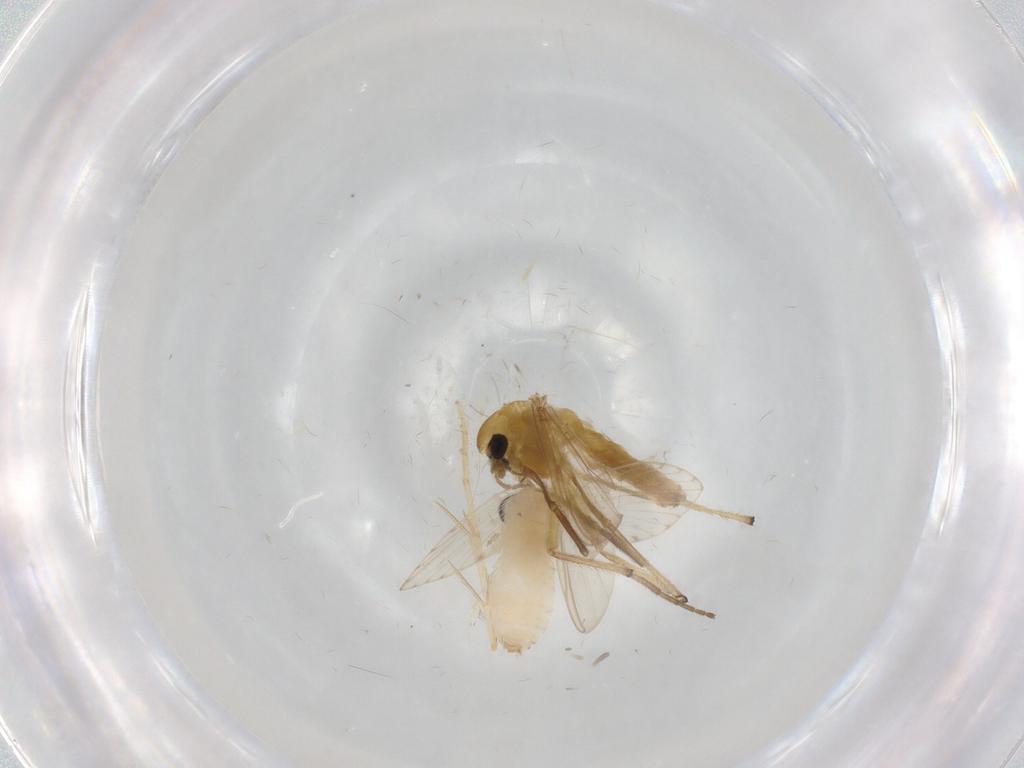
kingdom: Animalia
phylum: Arthropoda
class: Insecta
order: Diptera
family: Psychodidae
